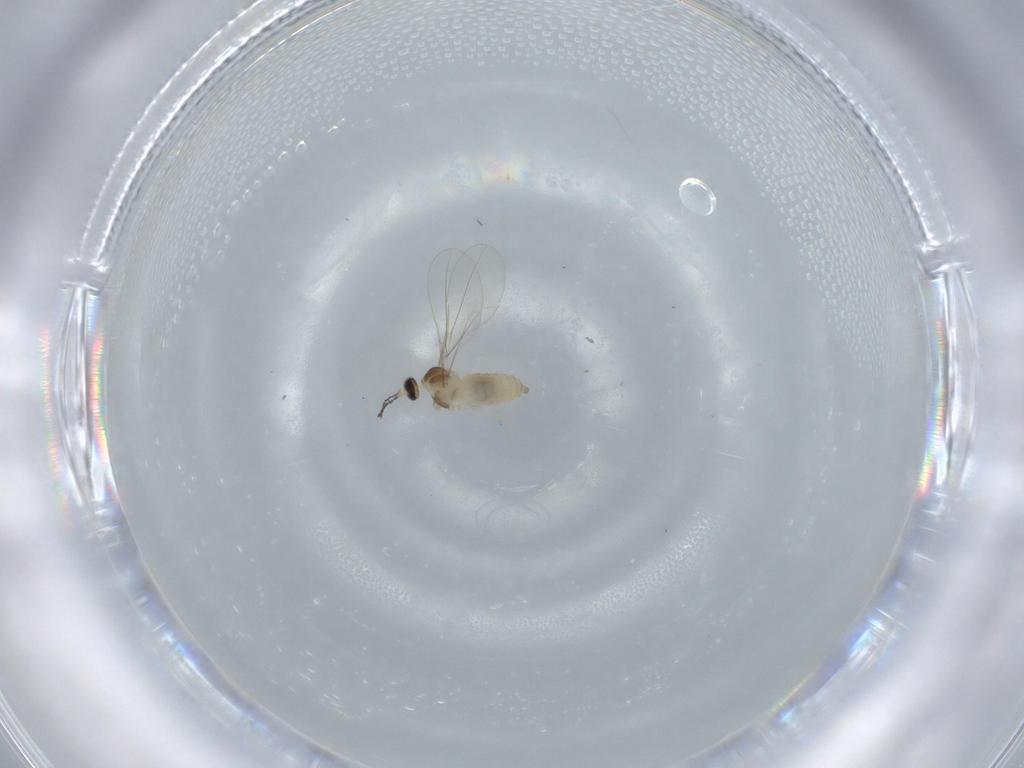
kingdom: Animalia
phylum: Arthropoda
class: Insecta
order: Diptera
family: Cecidomyiidae
